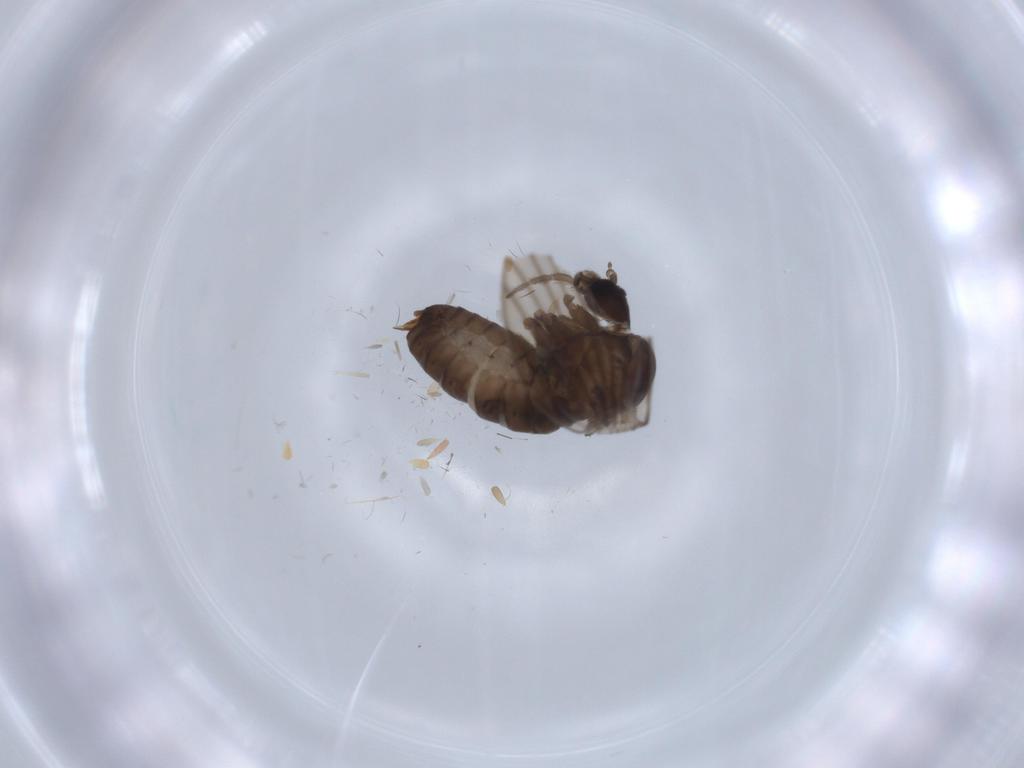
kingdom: Animalia
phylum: Arthropoda
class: Insecta
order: Diptera
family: Psychodidae
